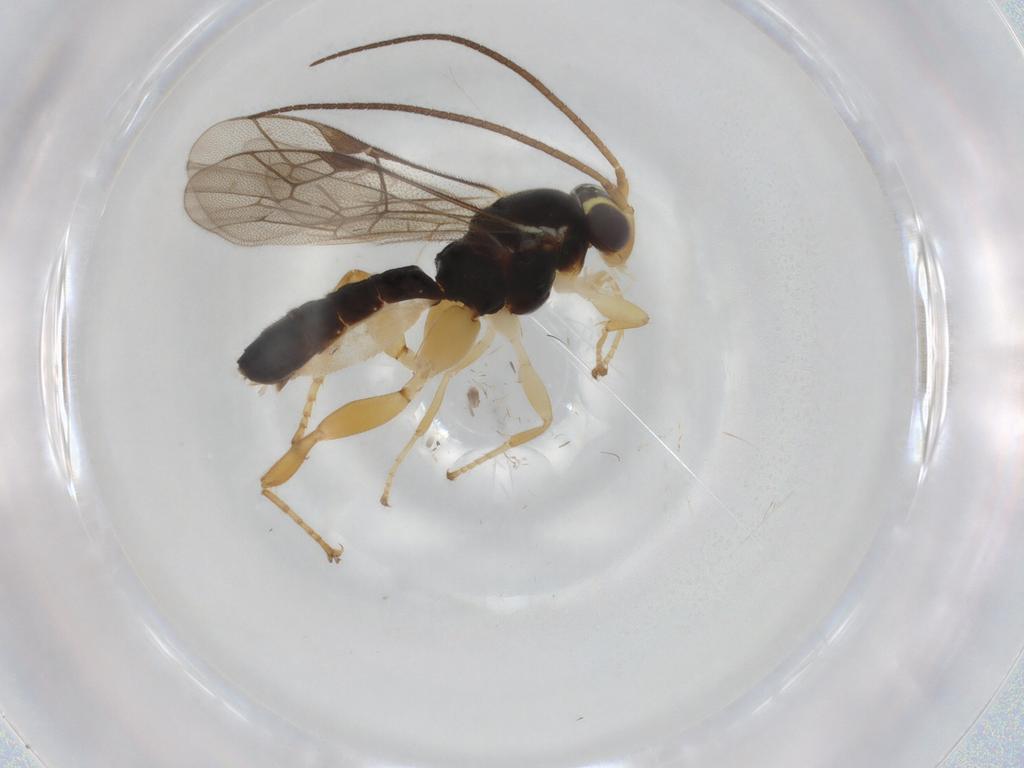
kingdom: Animalia
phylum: Arthropoda
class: Insecta
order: Hymenoptera
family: Ichneumonidae
